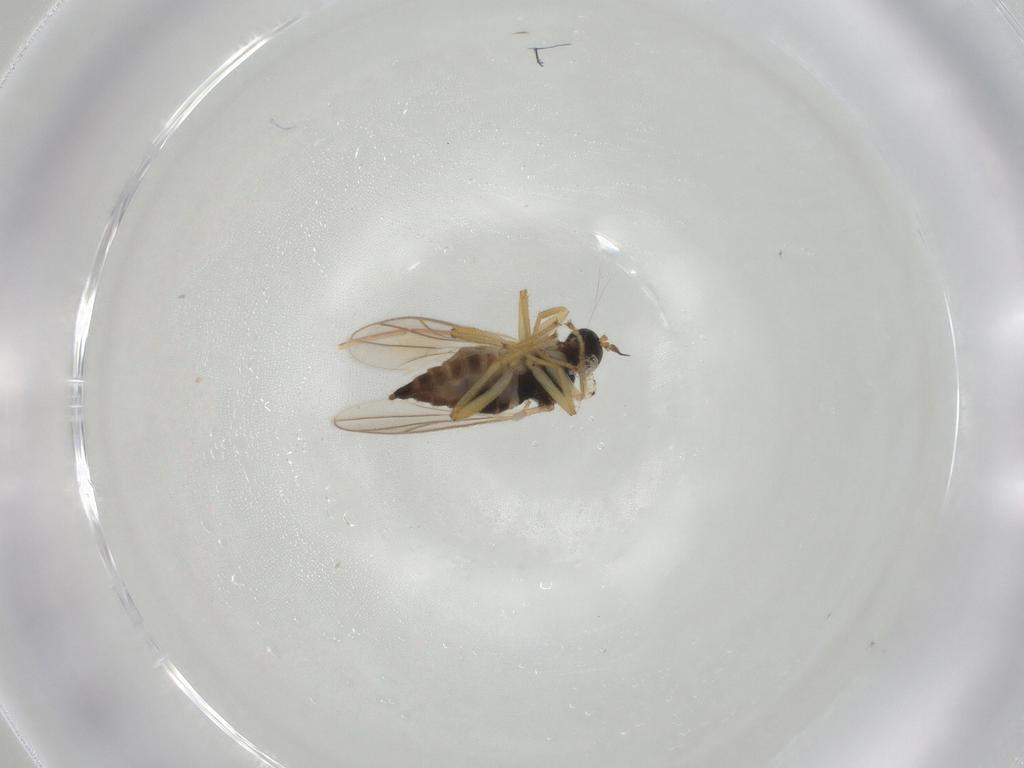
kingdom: Animalia
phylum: Arthropoda
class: Insecta
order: Diptera
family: Hybotidae
